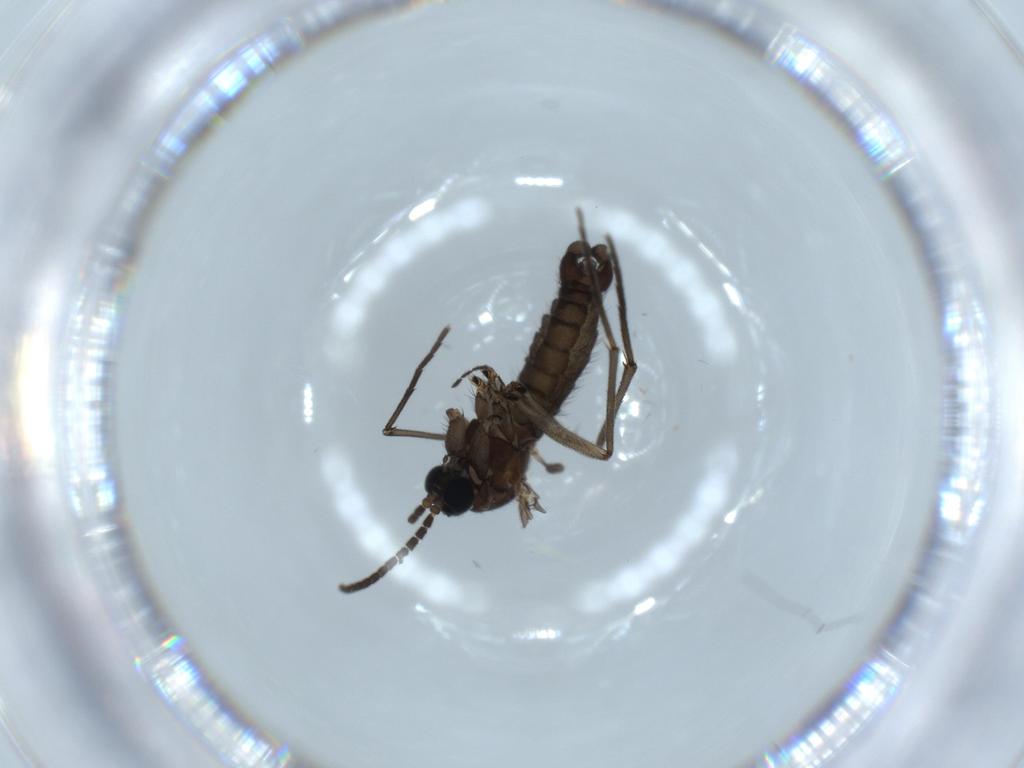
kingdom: Animalia
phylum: Arthropoda
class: Insecta
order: Diptera
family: Sciaridae
